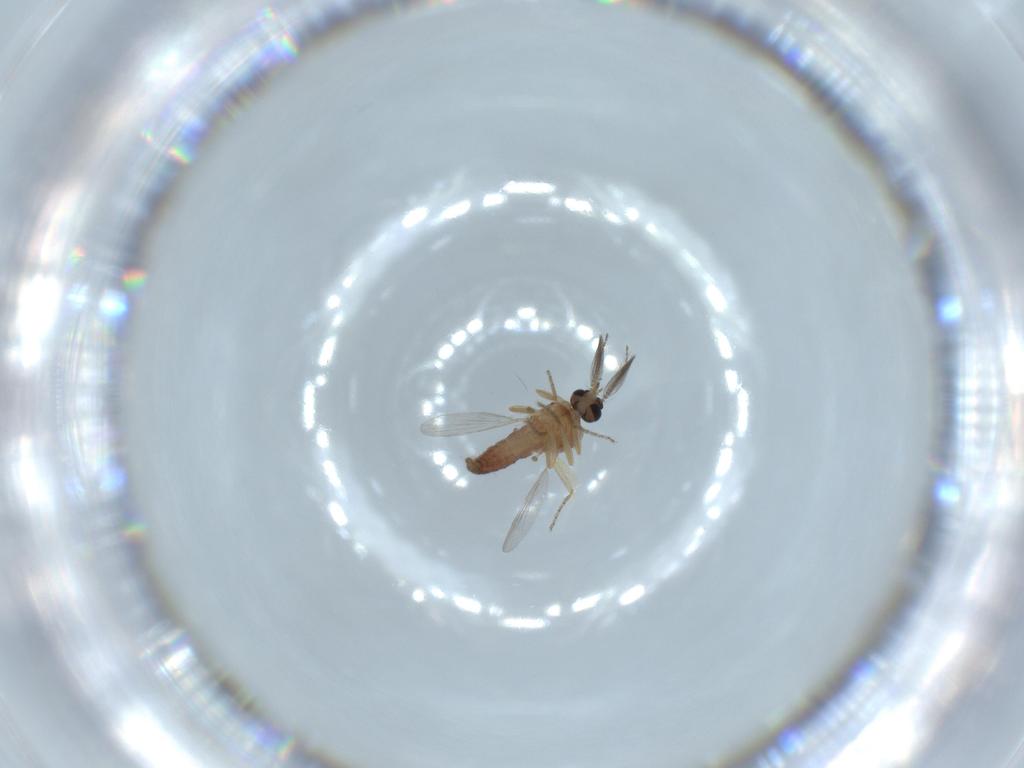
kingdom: Animalia
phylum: Arthropoda
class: Insecta
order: Diptera
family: Ceratopogonidae
